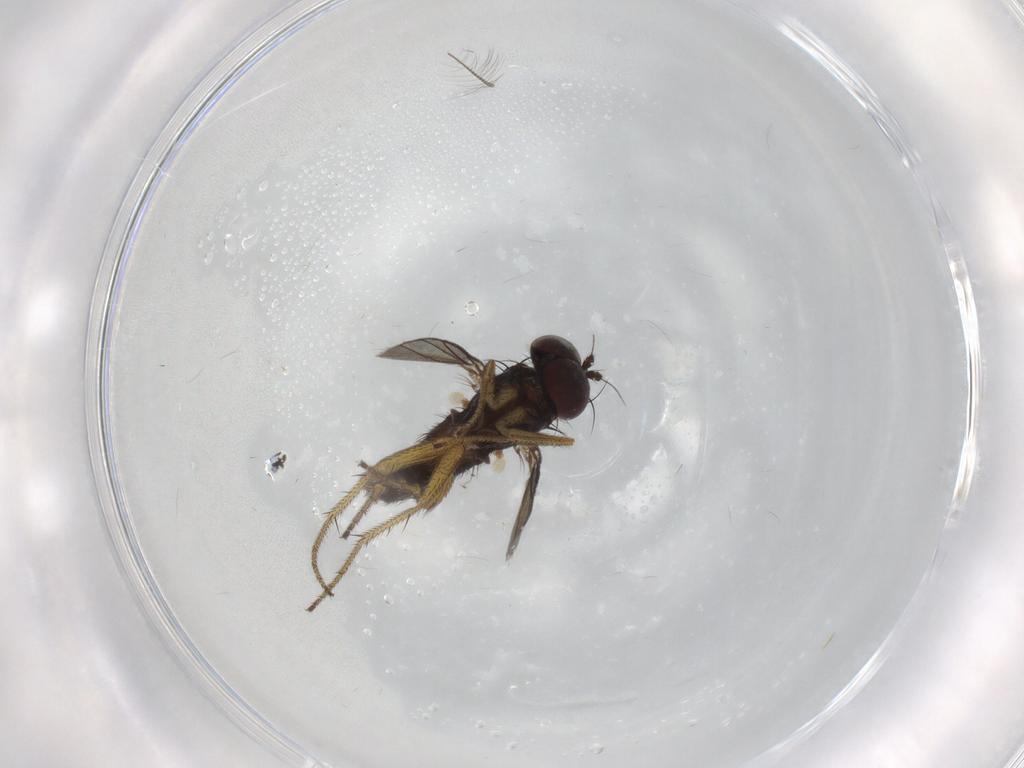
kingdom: Animalia
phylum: Arthropoda
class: Insecta
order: Diptera
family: Chironomidae
